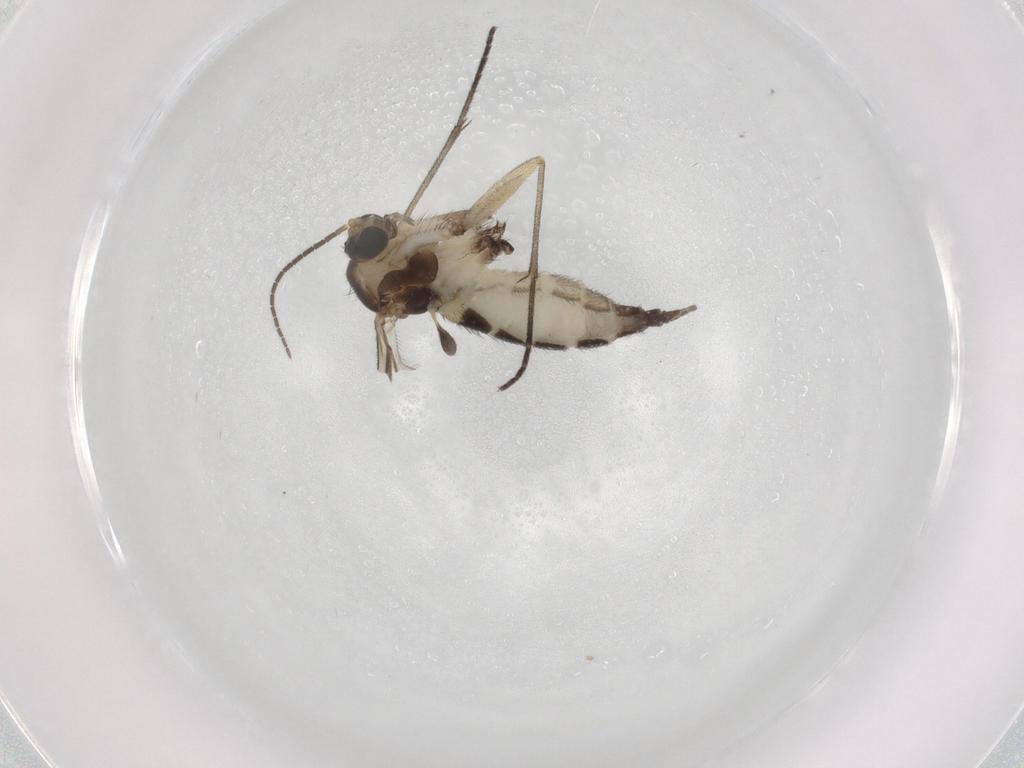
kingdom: Animalia
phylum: Arthropoda
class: Insecta
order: Diptera
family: Sciaridae
